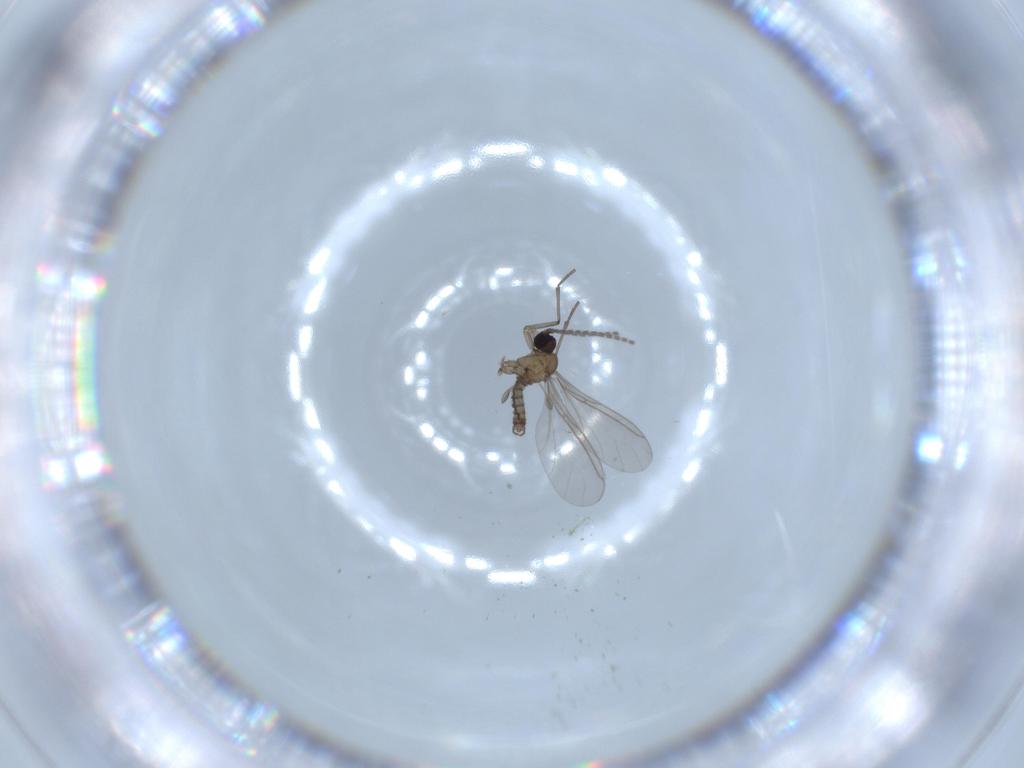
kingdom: Animalia
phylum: Arthropoda
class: Insecta
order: Diptera
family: Sciaridae
